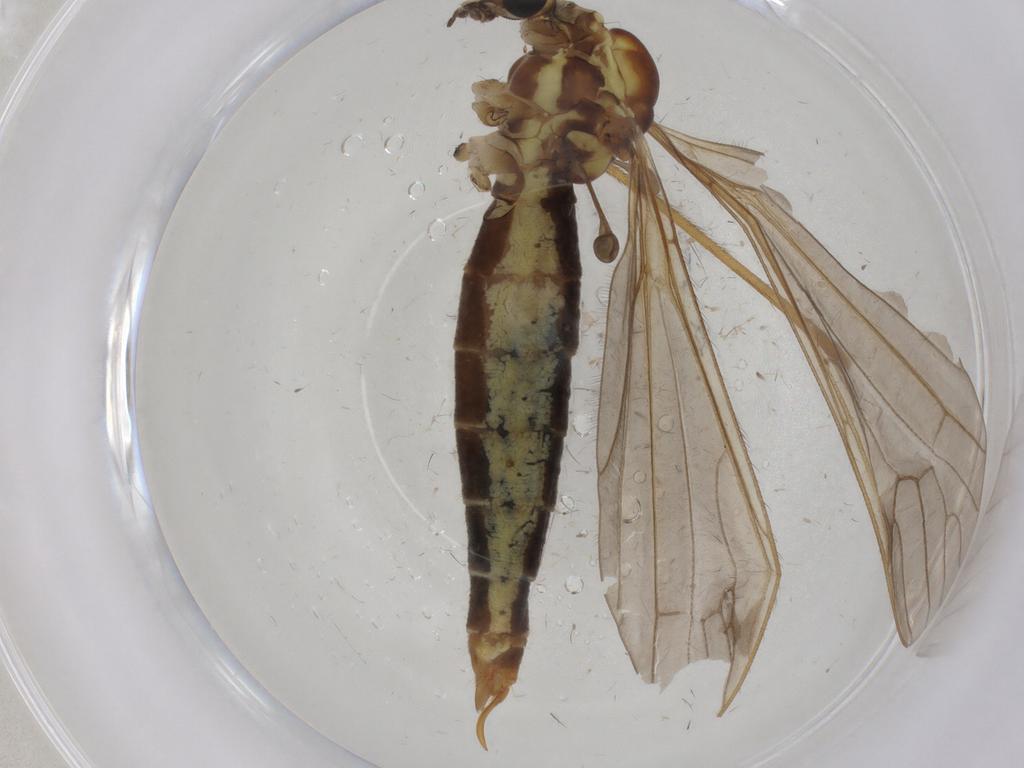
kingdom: Animalia
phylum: Arthropoda
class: Insecta
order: Diptera
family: Limoniidae
